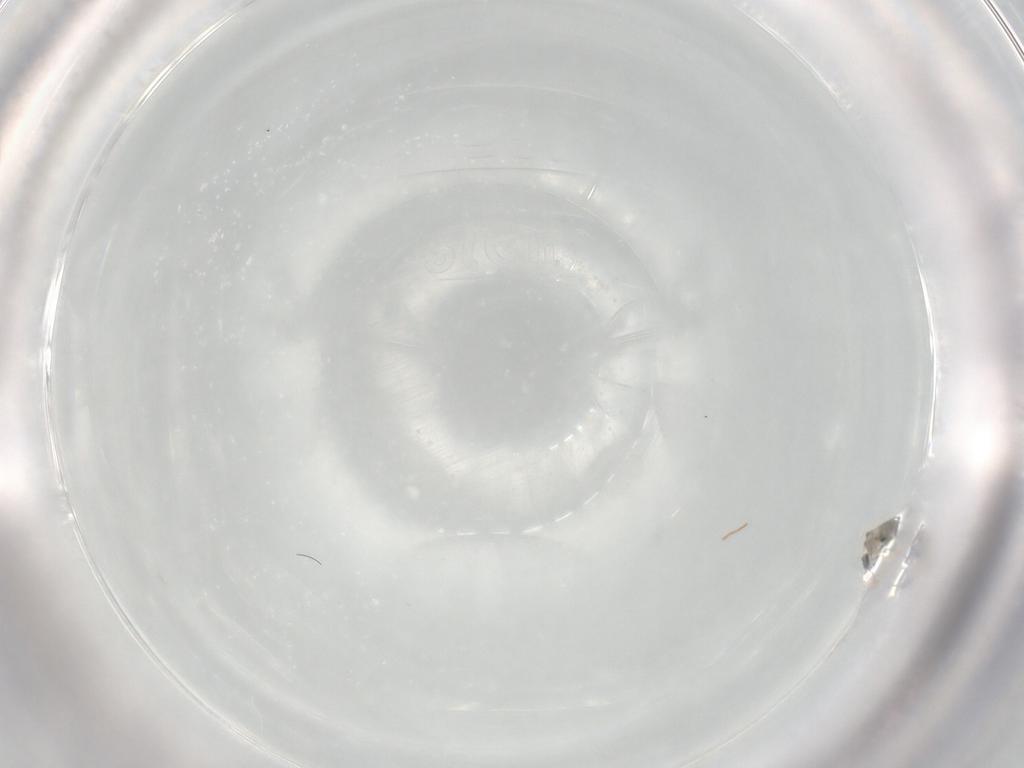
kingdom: Animalia
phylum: Arthropoda
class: Insecta
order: Diptera
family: Cecidomyiidae
